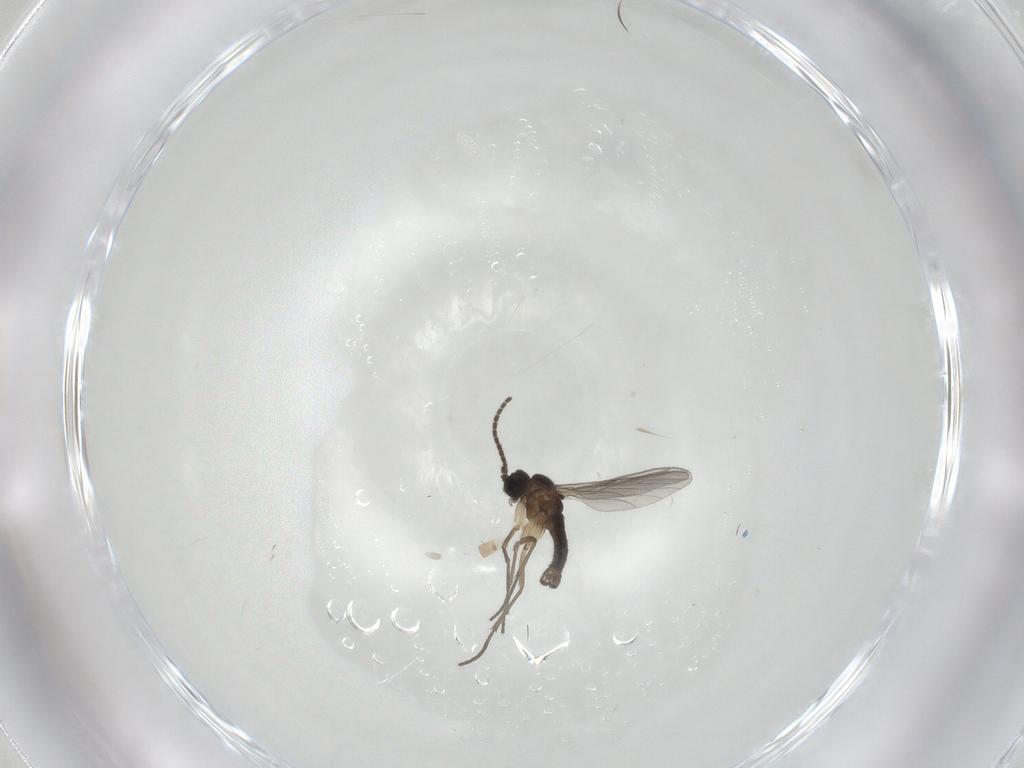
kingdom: Animalia
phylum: Arthropoda
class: Insecta
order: Diptera
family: Sciaridae
